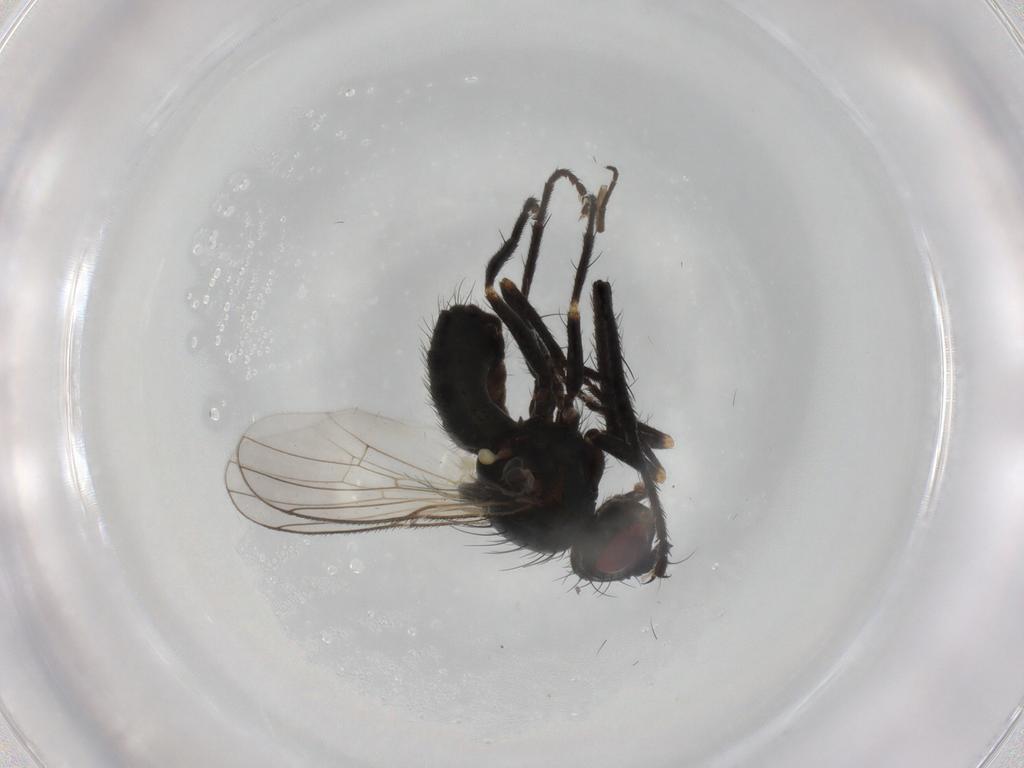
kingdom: Animalia
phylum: Arthropoda
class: Insecta
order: Diptera
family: Muscidae
